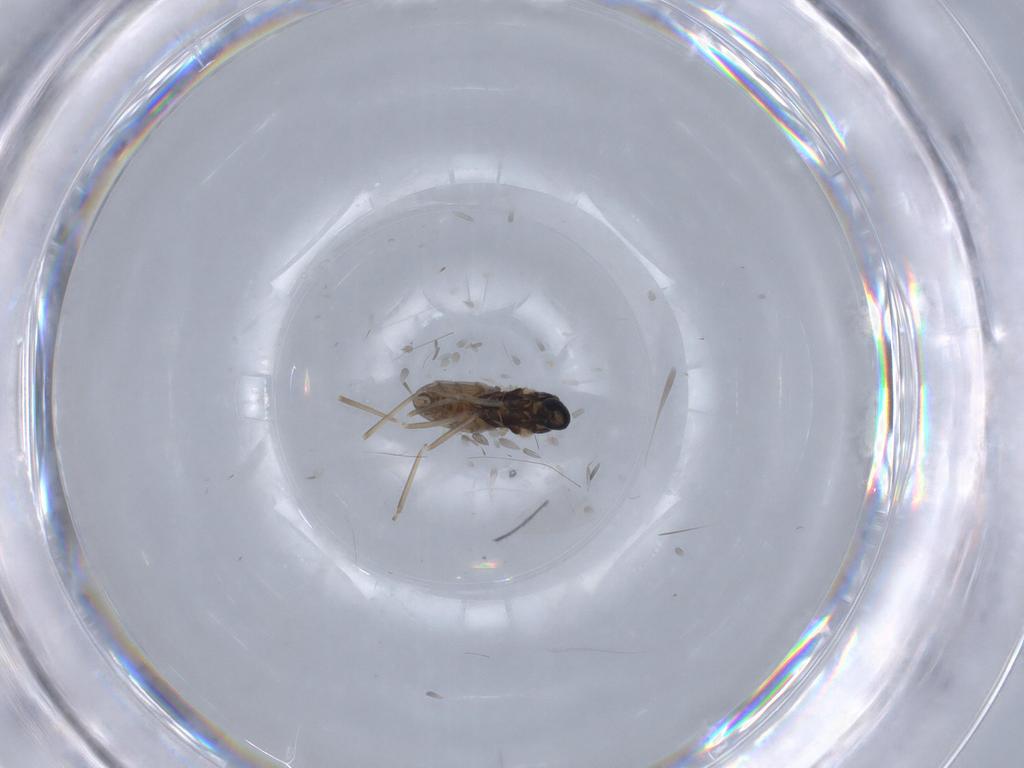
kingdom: Animalia
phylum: Arthropoda
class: Insecta
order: Diptera
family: Cecidomyiidae
